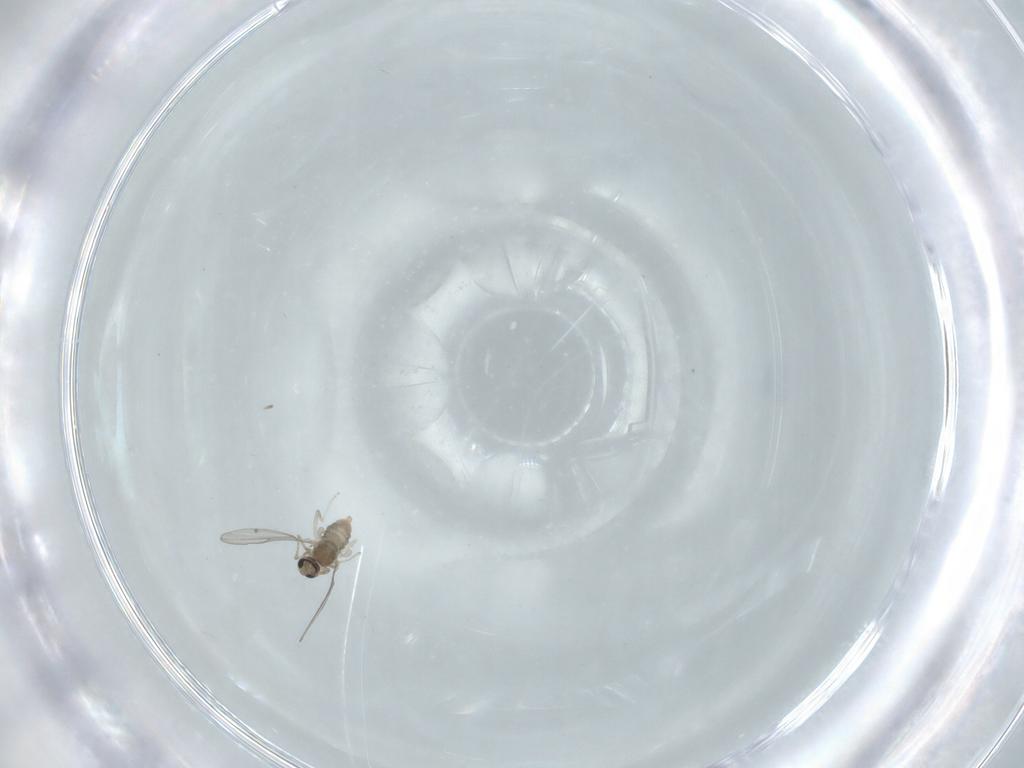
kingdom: Animalia
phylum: Arthropoda
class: Insecta
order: Diptera
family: Cecidomyiidae
